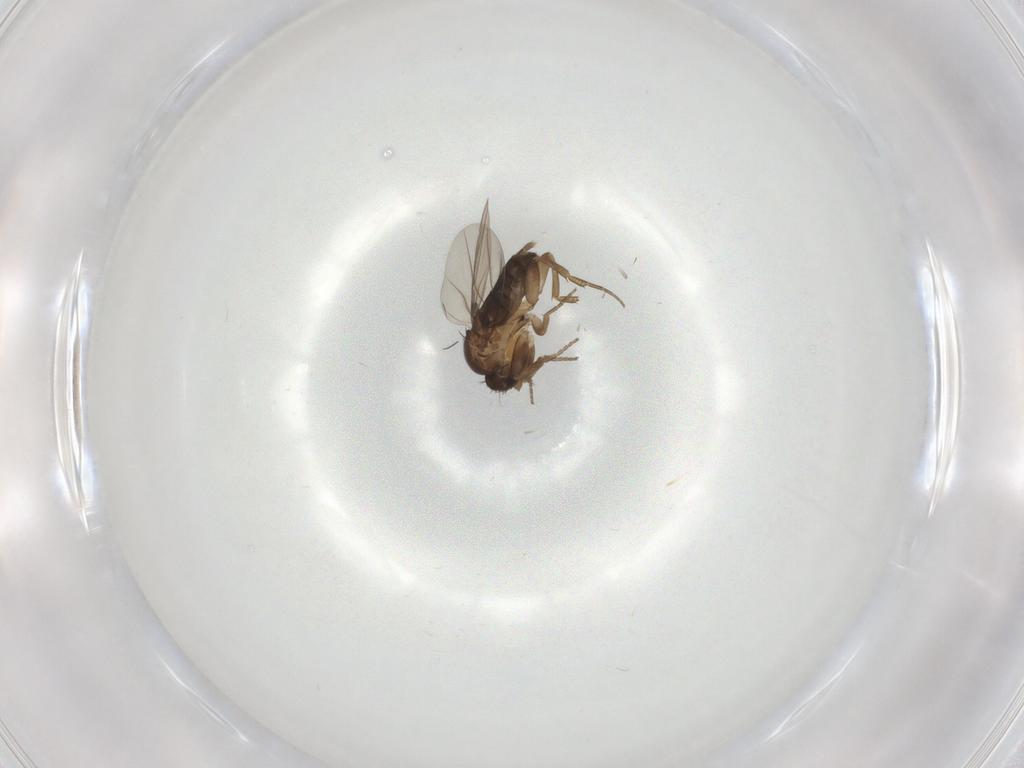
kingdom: Animalia
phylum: Arthropoda
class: Insecta
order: Diptera
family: Phoridae
